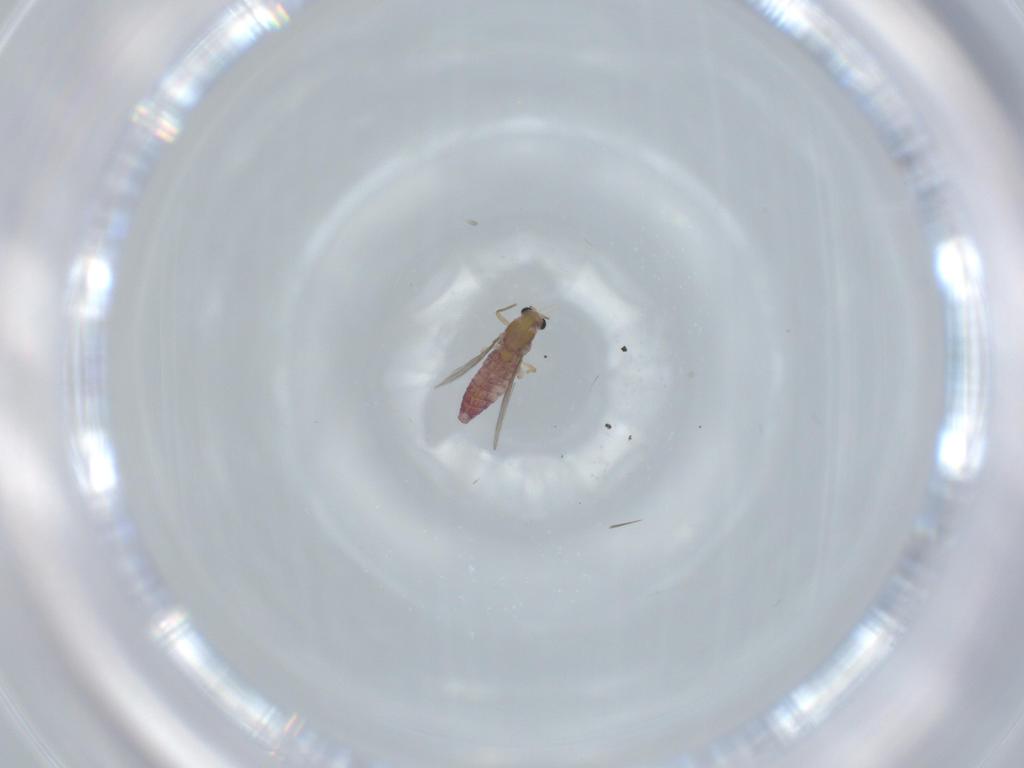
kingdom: Animalia
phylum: Arthropoda
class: Insecta
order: Diptera
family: Chironomidae
